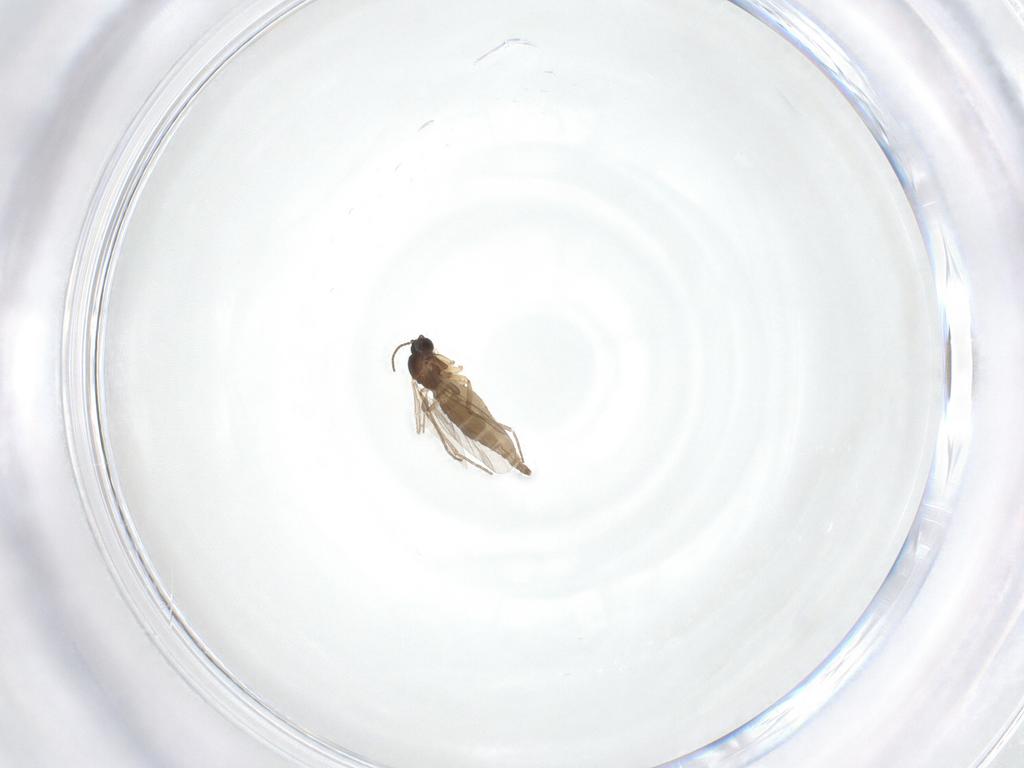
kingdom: Animalia
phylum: Arthropoda
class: Insecta
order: Diptera
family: Sciaridae
